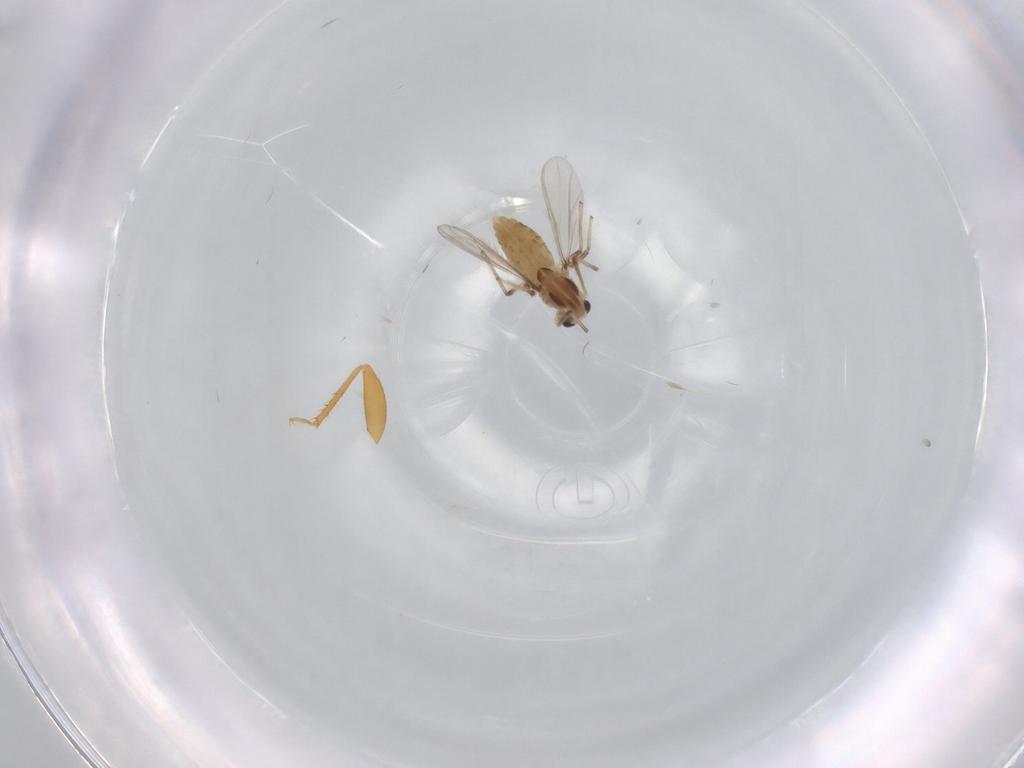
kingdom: Animalia
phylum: Arthropoda
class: Insecta
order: Diptera
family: Chironomidae
